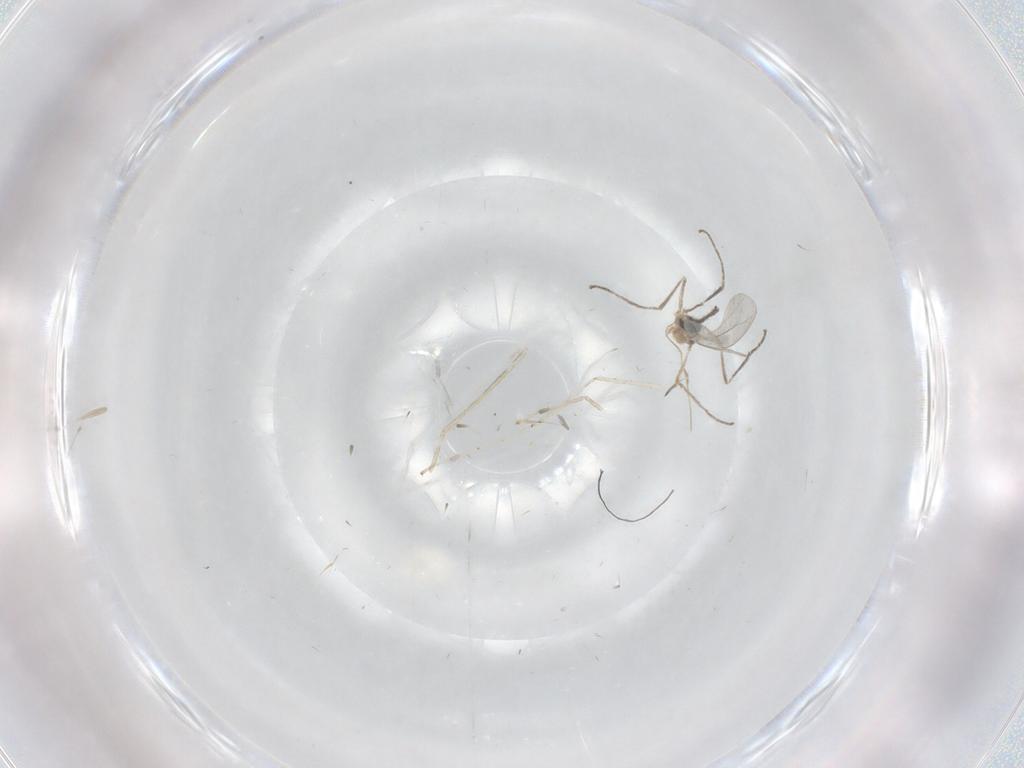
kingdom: Animalia
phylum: Arthropoda
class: Insecta
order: Diptera
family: Cecidomyiidae
